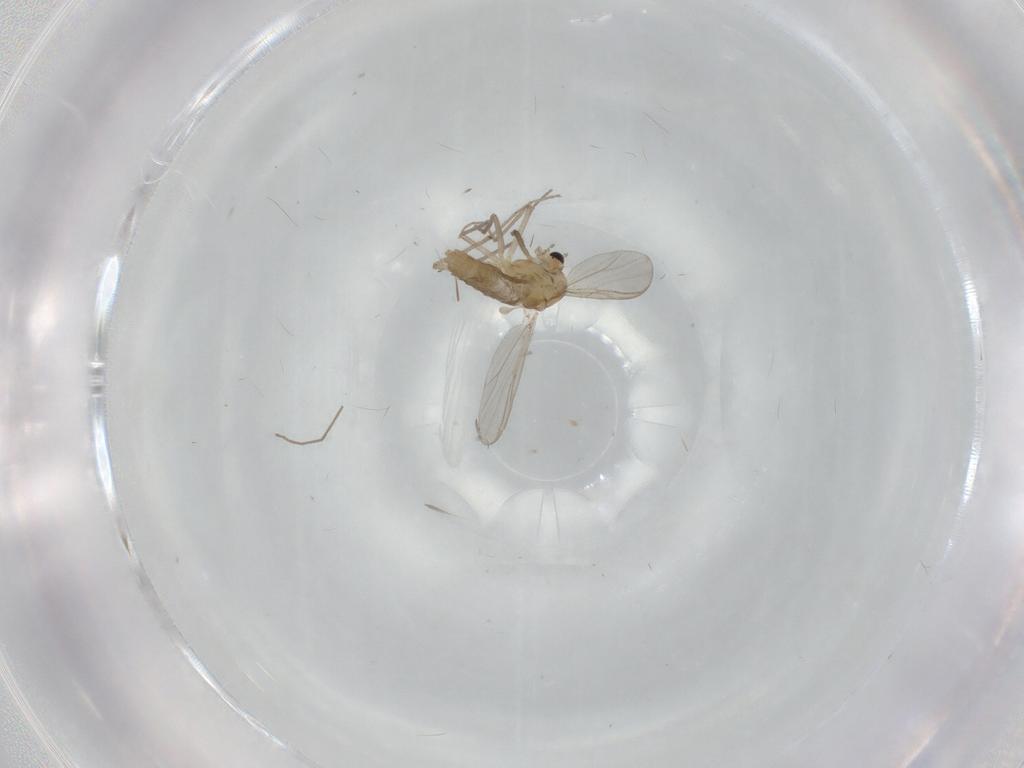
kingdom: Animalia
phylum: Arthropoda
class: Insecta
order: Diptera
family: Chironomidae
